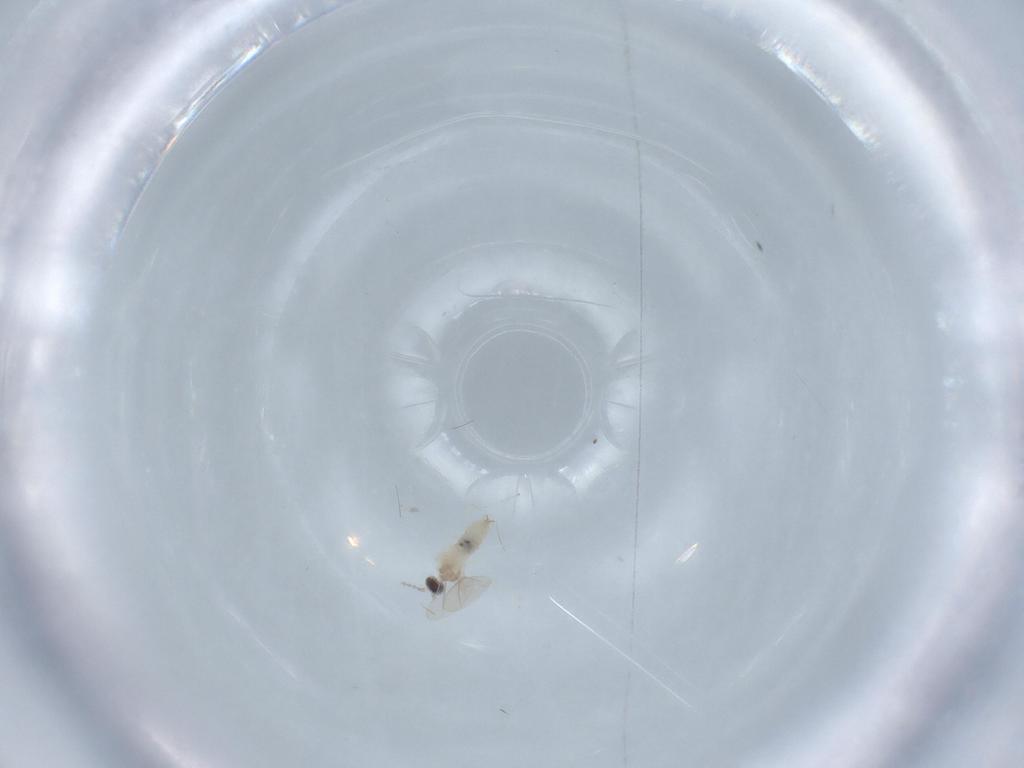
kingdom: Animalia
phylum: Arthropoda
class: Insecta
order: Diptera
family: Cecidomyiidae
